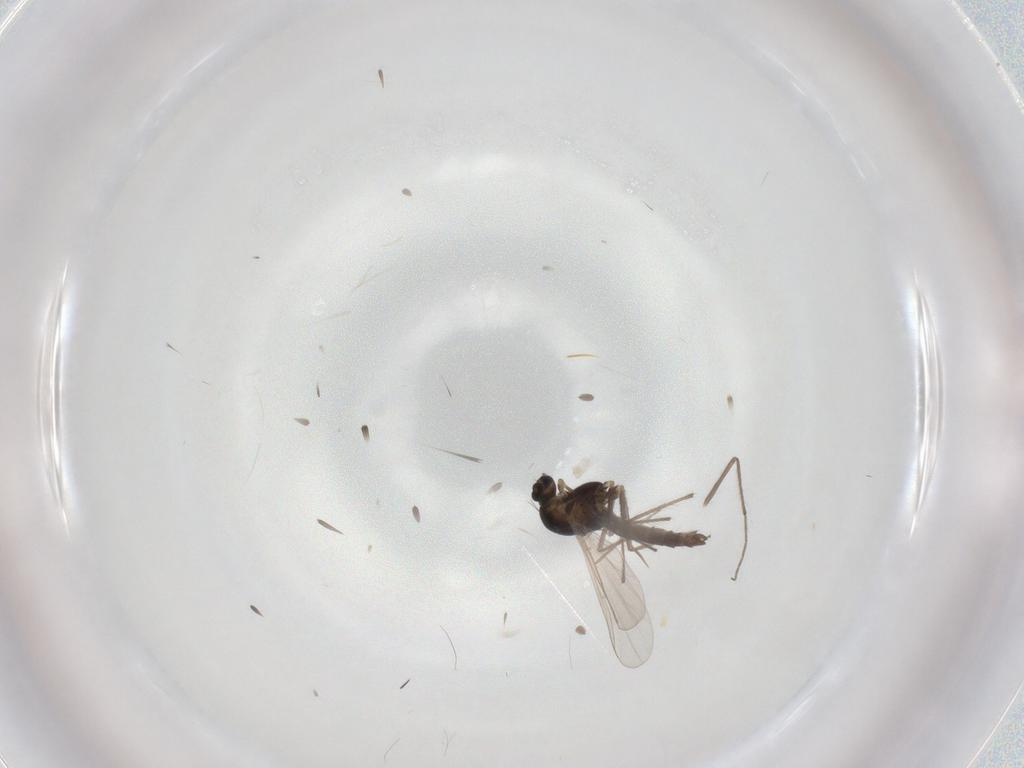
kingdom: Animalia
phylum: Arthropoda
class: Insecta
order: Diptera
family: Chironomidae
